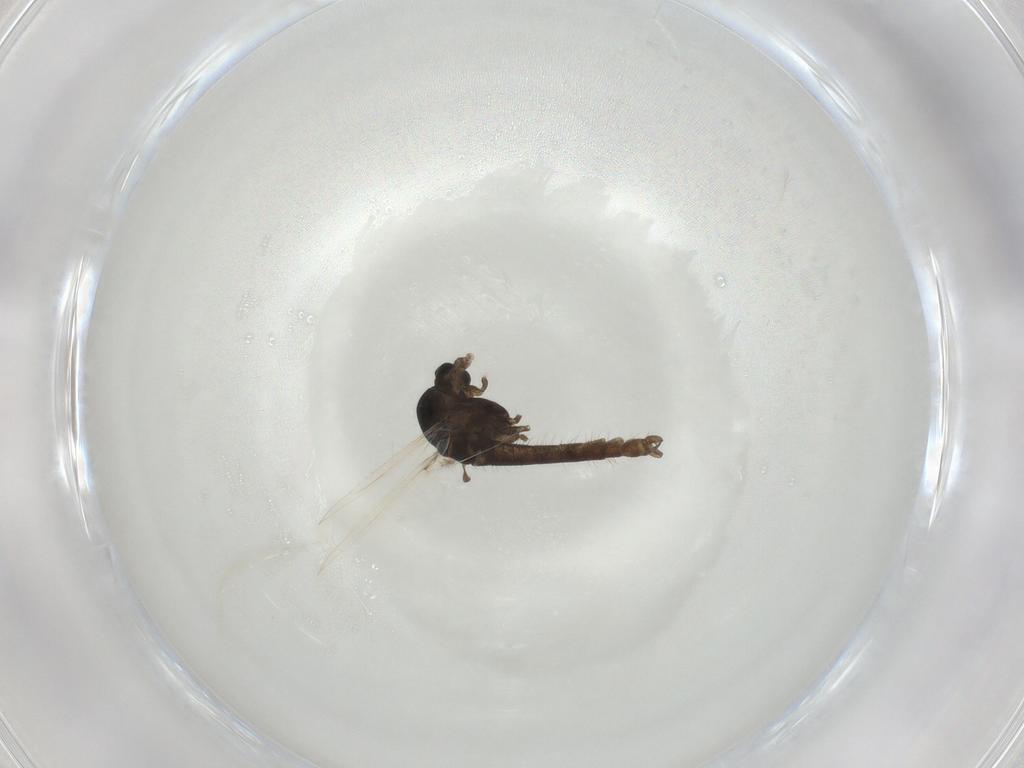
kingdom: Animalia
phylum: Arthropoda
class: Insecta
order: Diptera
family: Chironomidae
